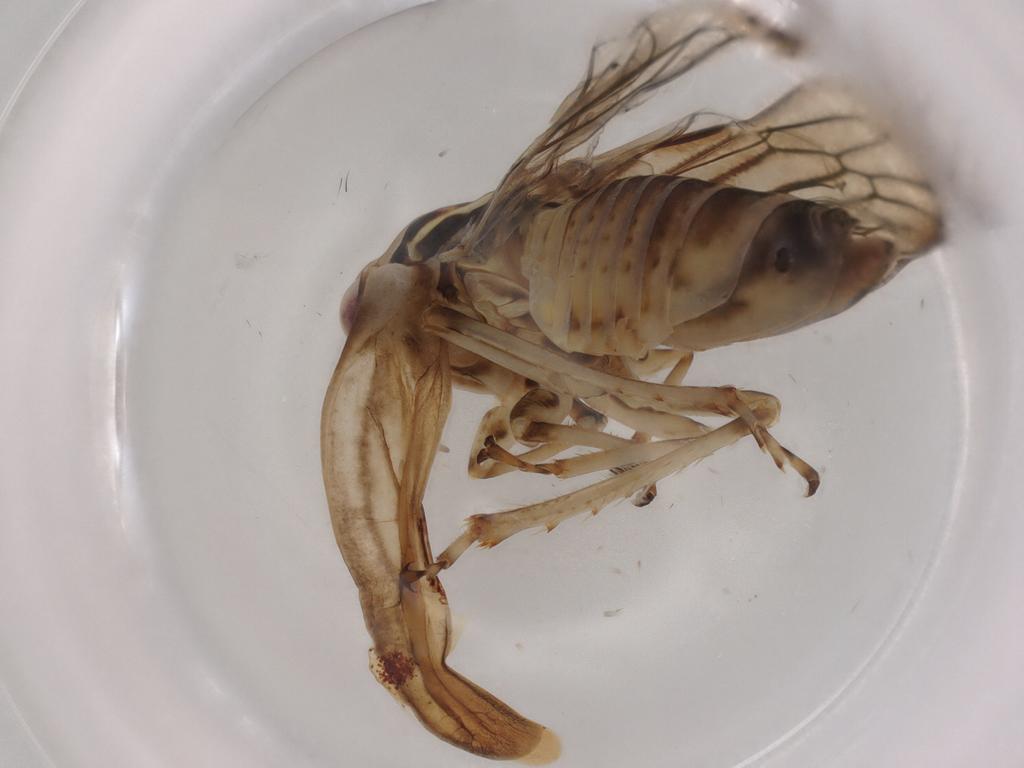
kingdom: Animalia
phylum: Arthropoda
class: Insecta
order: Hemiptera
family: Cicadellidae
